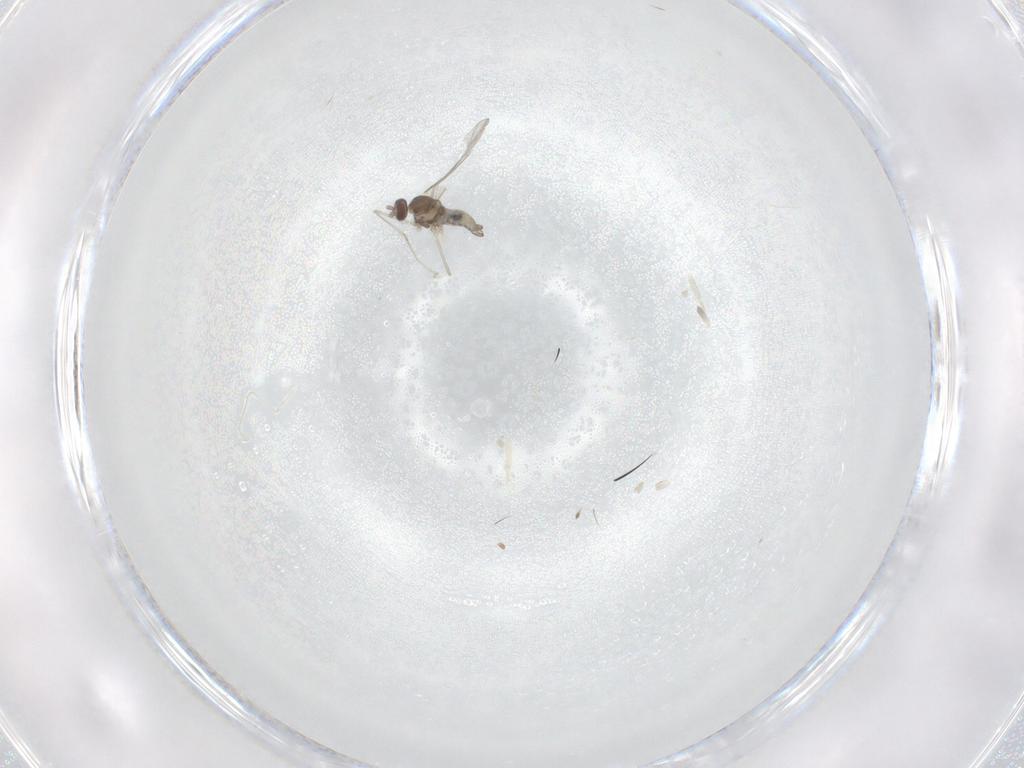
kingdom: Animalia
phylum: Arthropoda
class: Insecta
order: Diptera
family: Cecidomyiidae
